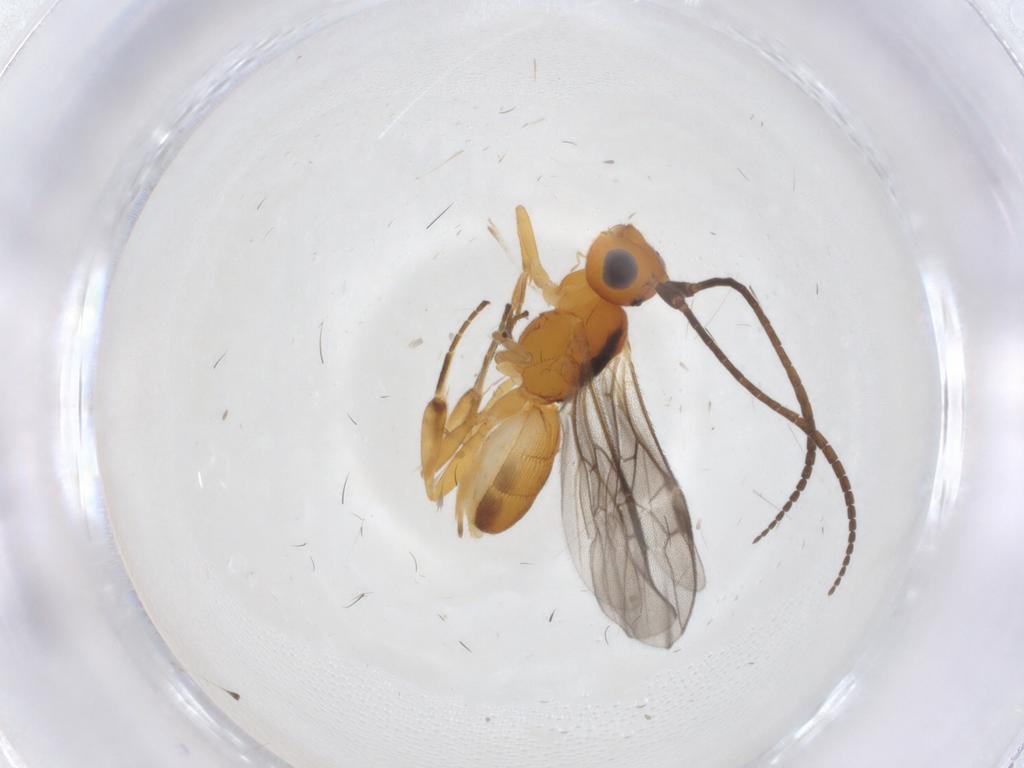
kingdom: Animalia
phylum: Arthropoda
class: Insecta
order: Hymenoptera
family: Braconidae
